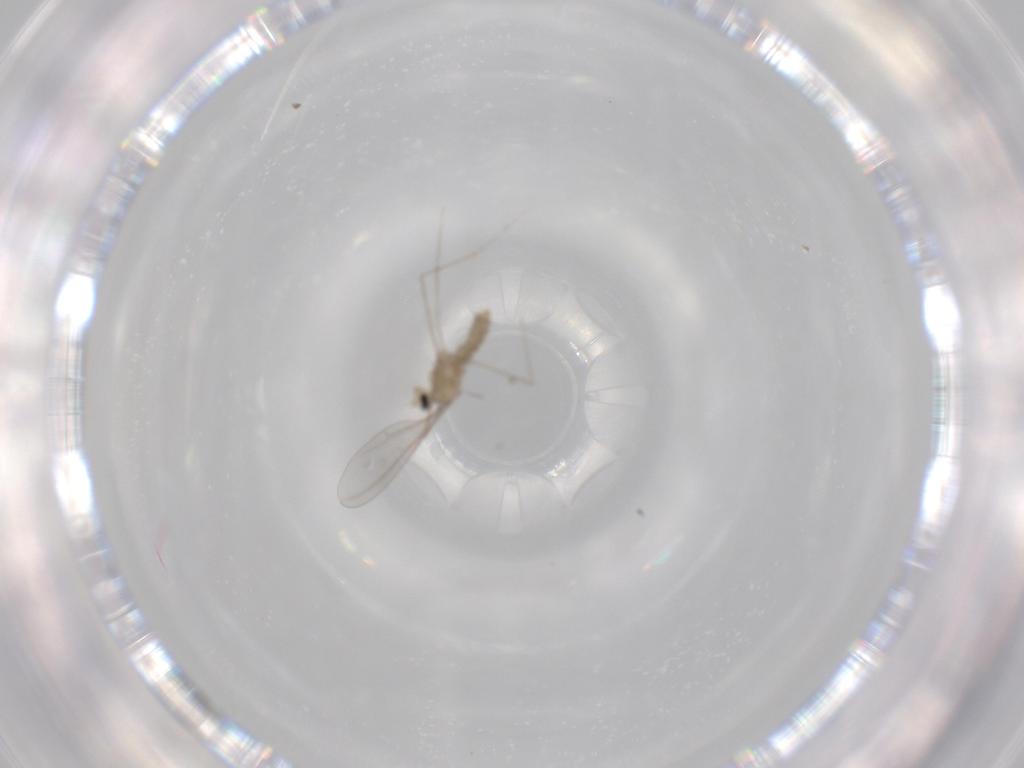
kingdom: Animalia
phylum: Arthropoda
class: Insecta
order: Diptera
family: Cecidomyiidae
